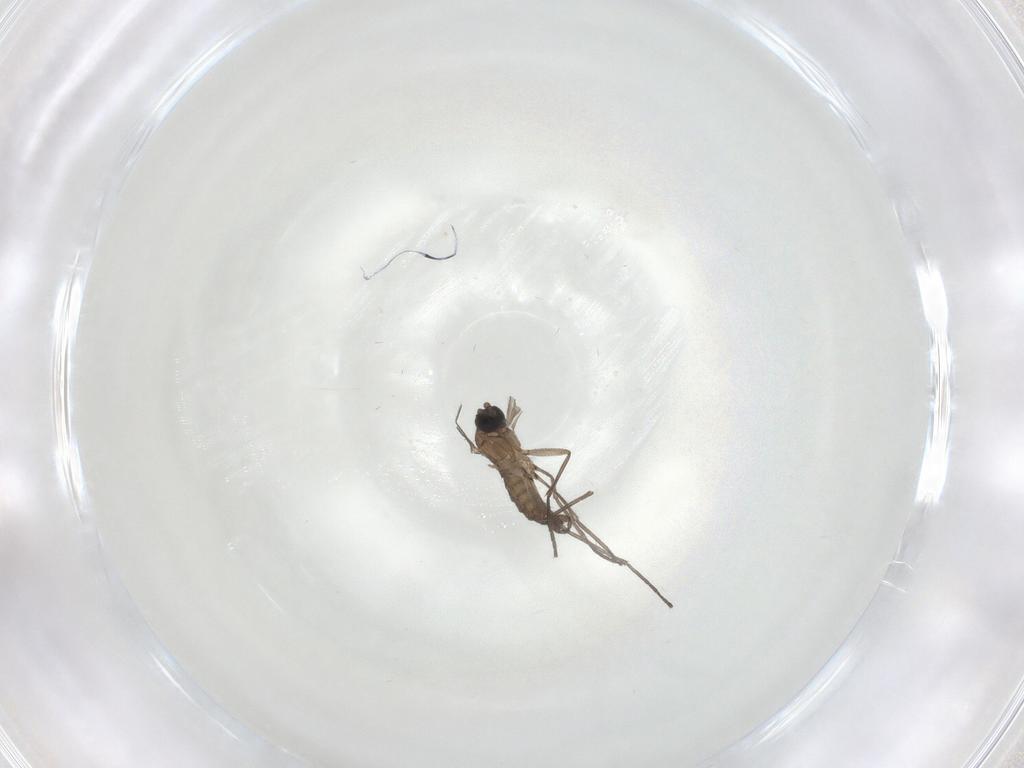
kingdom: Animalia
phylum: Arthropoda
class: Insecta
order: Diptera
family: Sciaridae
